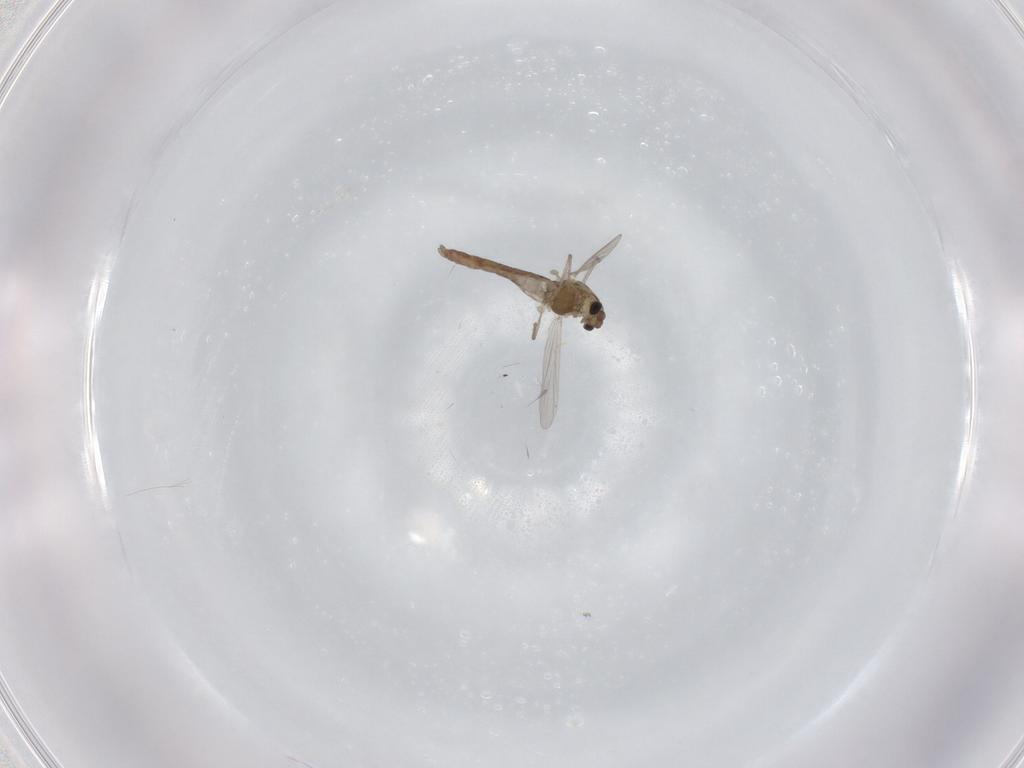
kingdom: Animalia
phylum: Arthropoda
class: Insecta
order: Diptera
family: Chironomidae
